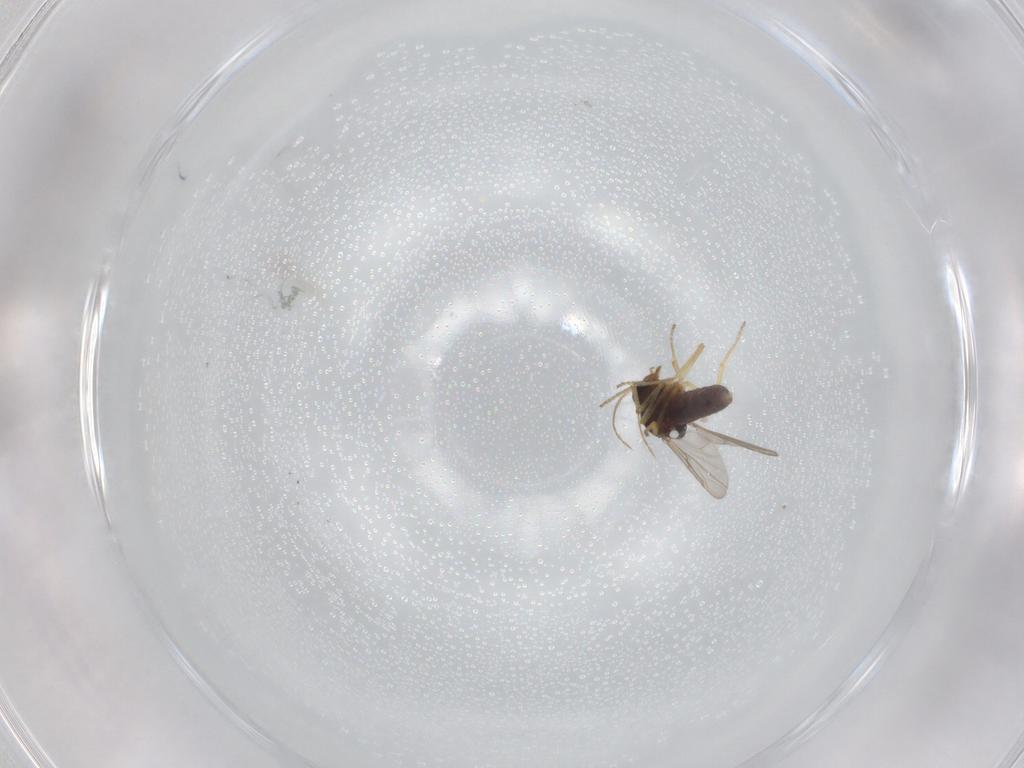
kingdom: Animalia
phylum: Arthropoda
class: Insecta
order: Diptera
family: Ceratopogonidae
